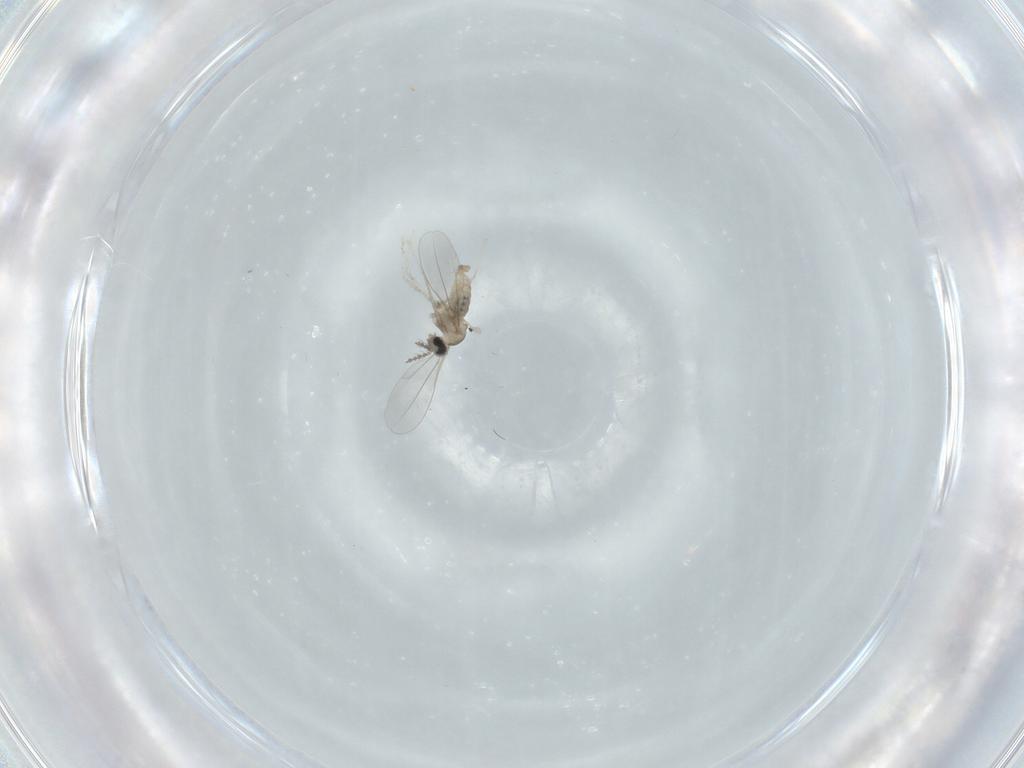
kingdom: Animalia
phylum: Arthropoda
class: Insecta
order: Diptera
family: Cecidomyiidae
